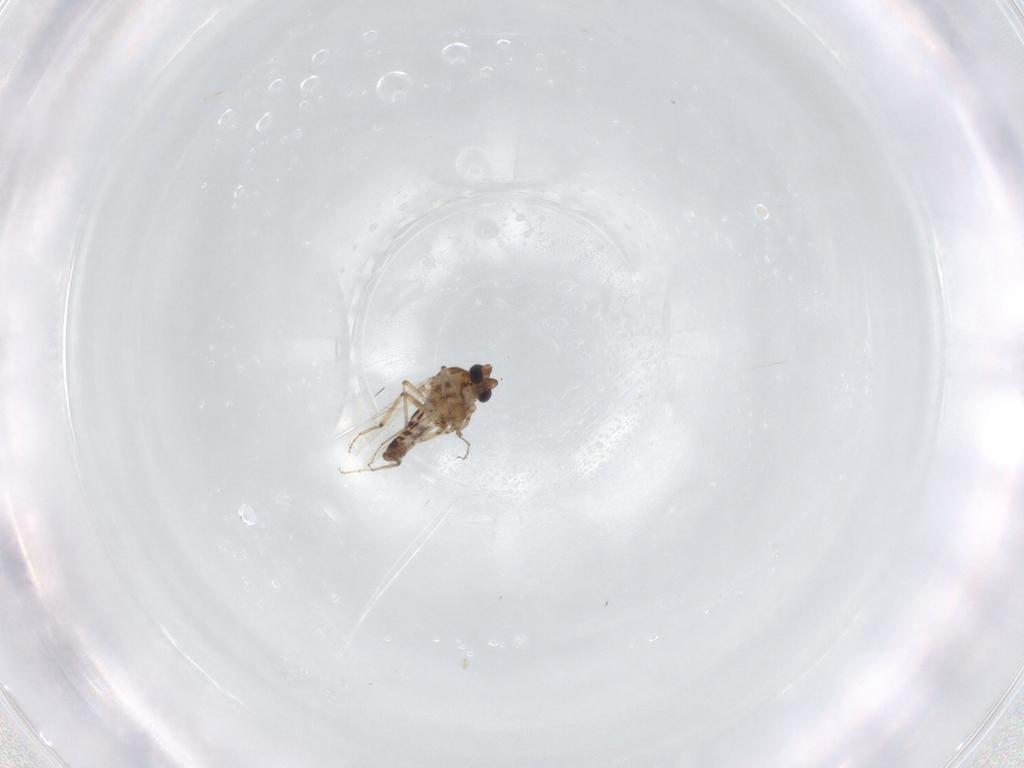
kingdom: Animalia
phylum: Arthropoda
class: Insecta
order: Diptera
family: Ceratopogonidae
